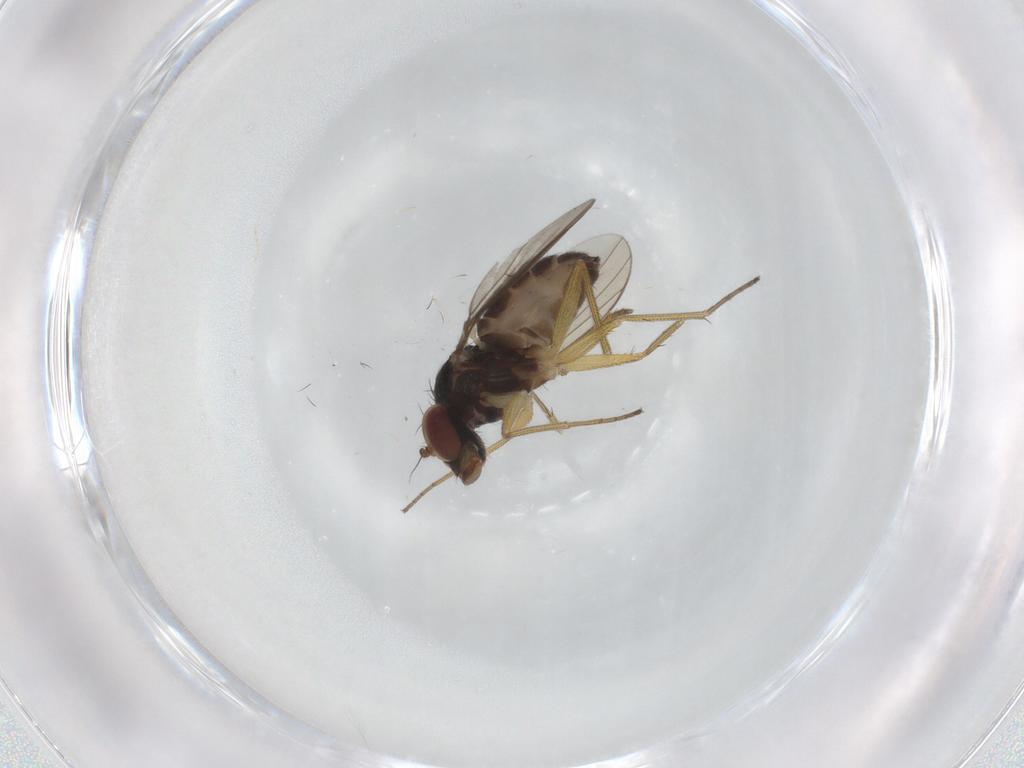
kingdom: Animalia
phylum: Arthropoda
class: Insecta
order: Diptera
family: Dolichopodidae
